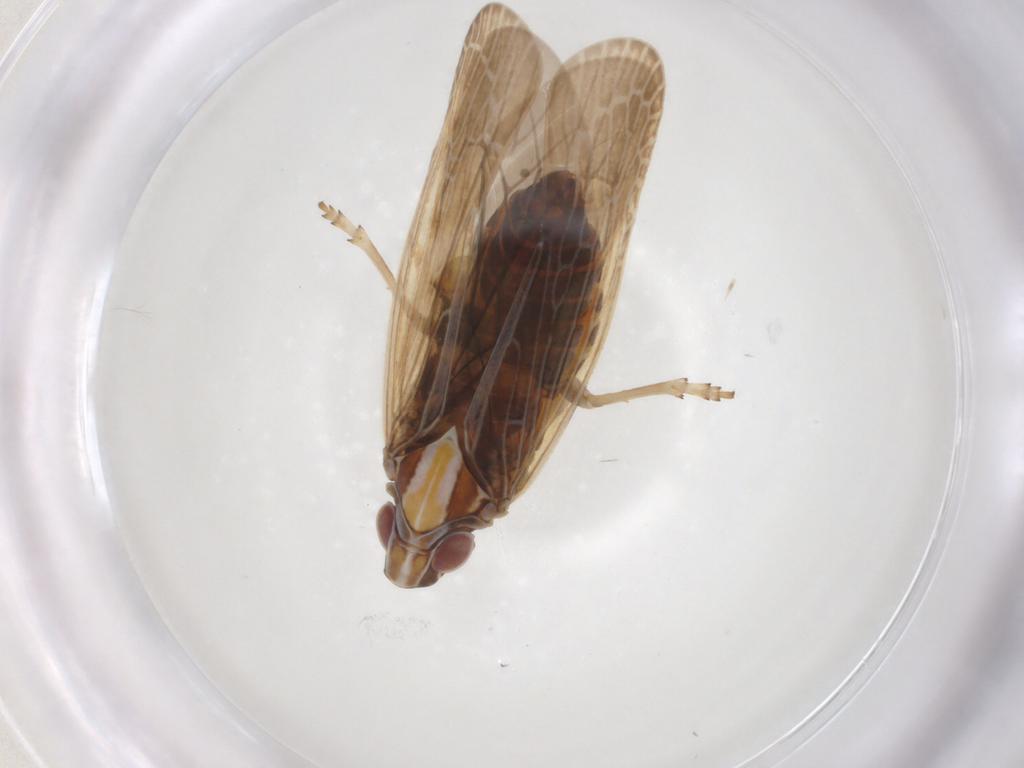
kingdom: Animalia
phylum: Arthropoda
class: Insecta
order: Hemiptera
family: Achilidae
